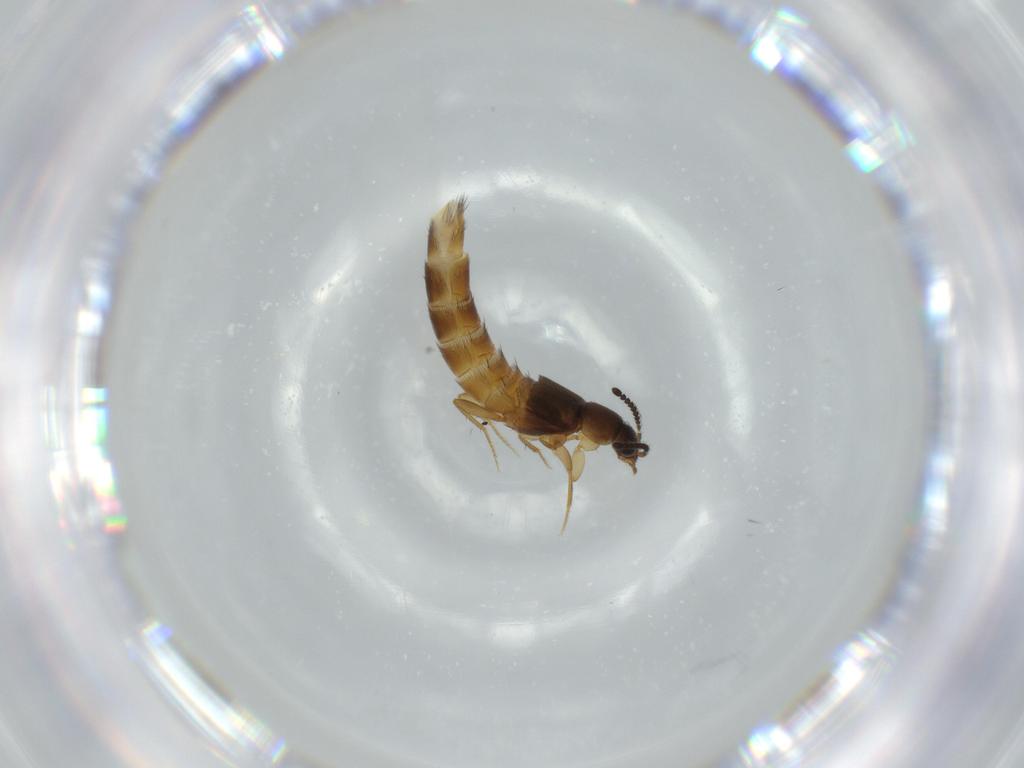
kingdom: Animalia
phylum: Arthropoda
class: Insecta
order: Coleoptera
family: Staphylinidae
